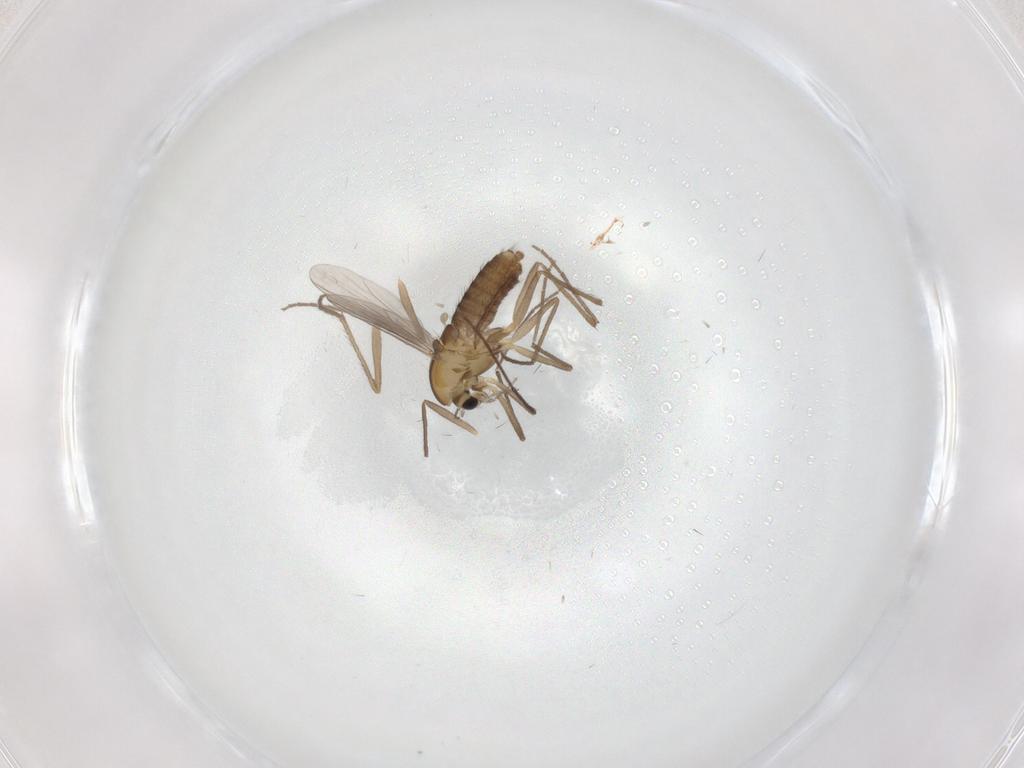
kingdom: Animalia
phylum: Arthropoda
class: Insecta
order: Diptera
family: Chironomidae
